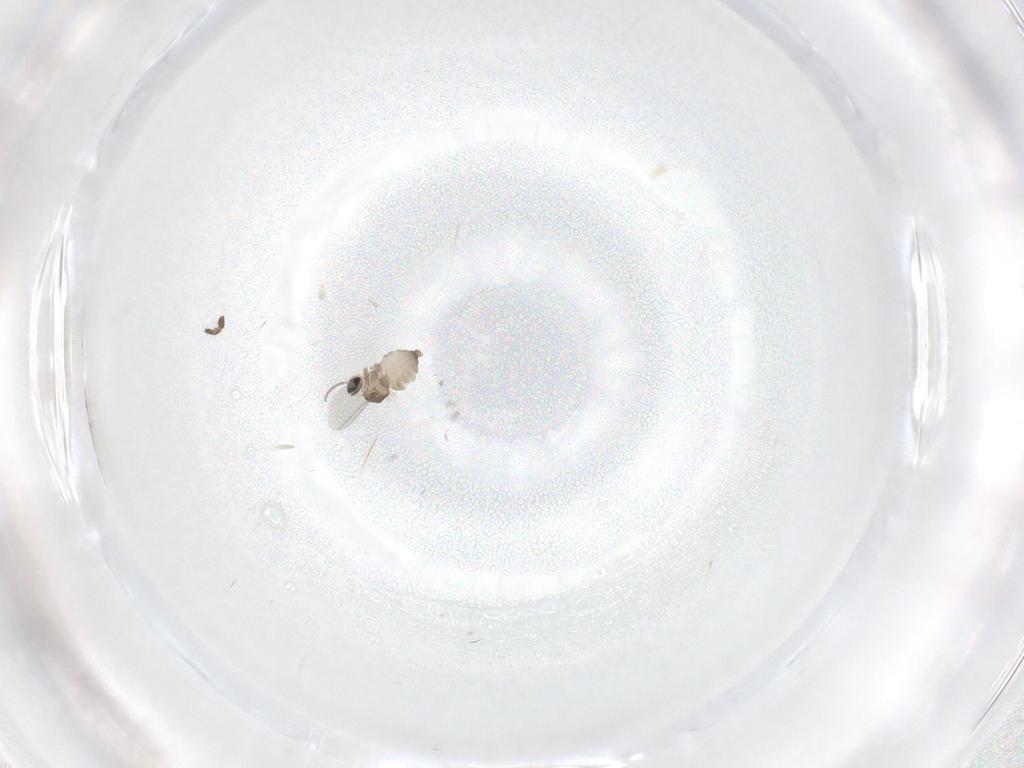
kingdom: Animalia
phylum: Arthropoda
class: Insecta
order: Diptera
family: Cecidomyiidae
